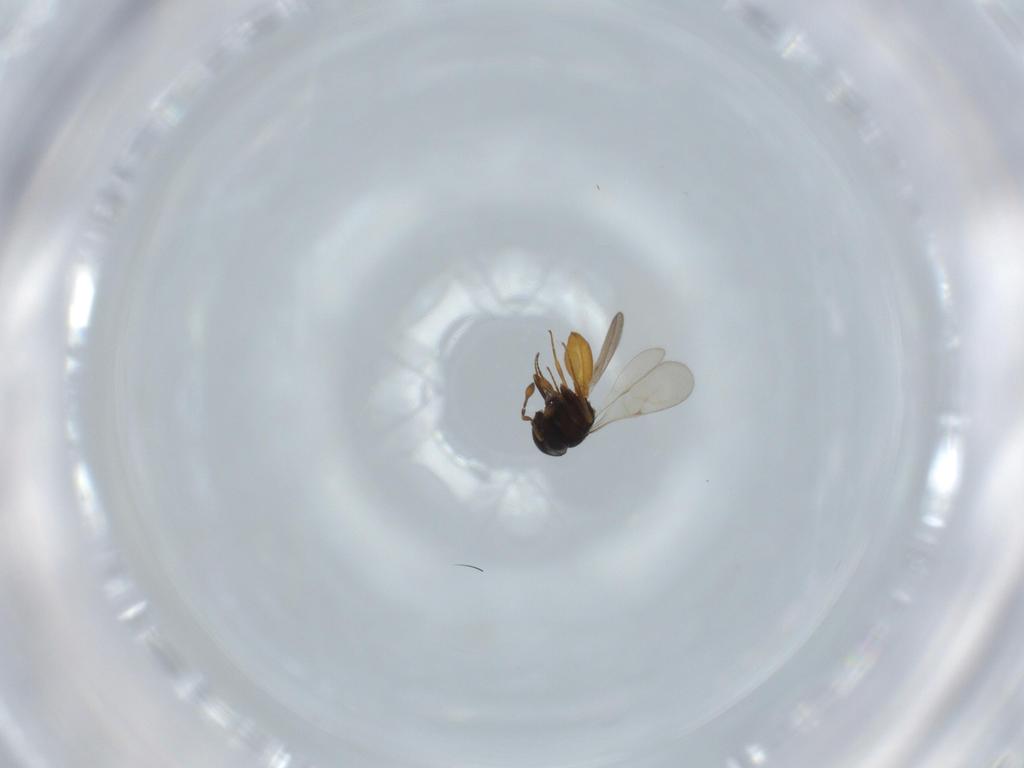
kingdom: Animalia
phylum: Arthropoda
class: Insecta
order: Hymenoptera
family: Scelionidae
